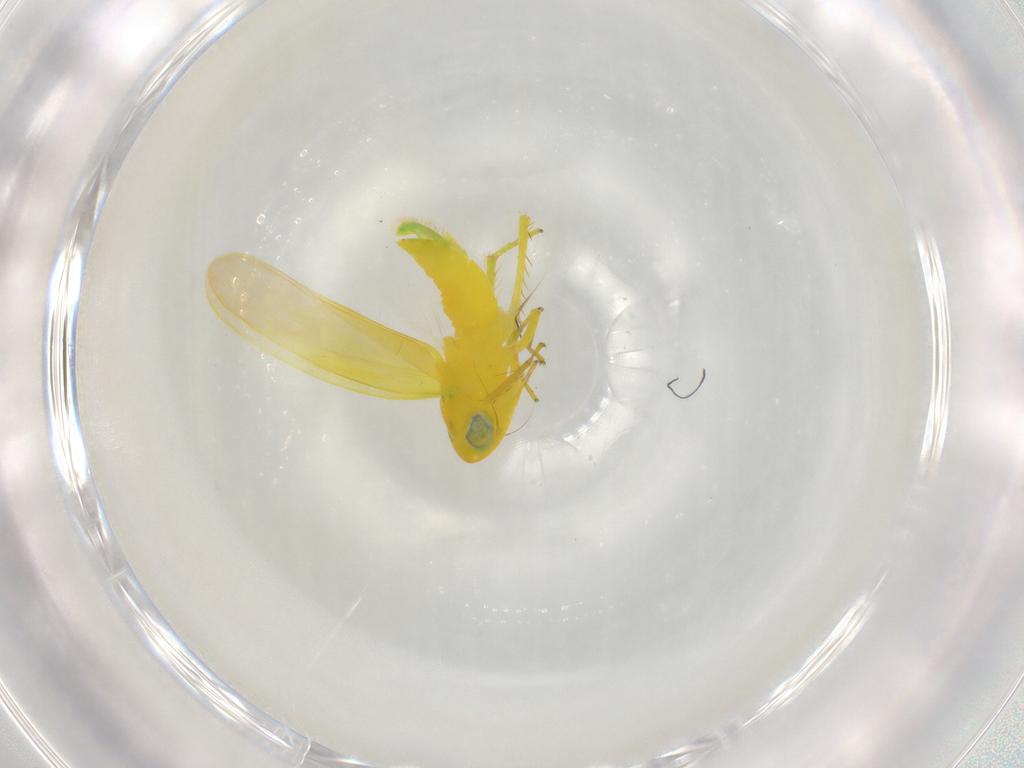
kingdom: Animalia
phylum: Arthropoda
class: Insecta
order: Hemiptera
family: Cicadellidae
